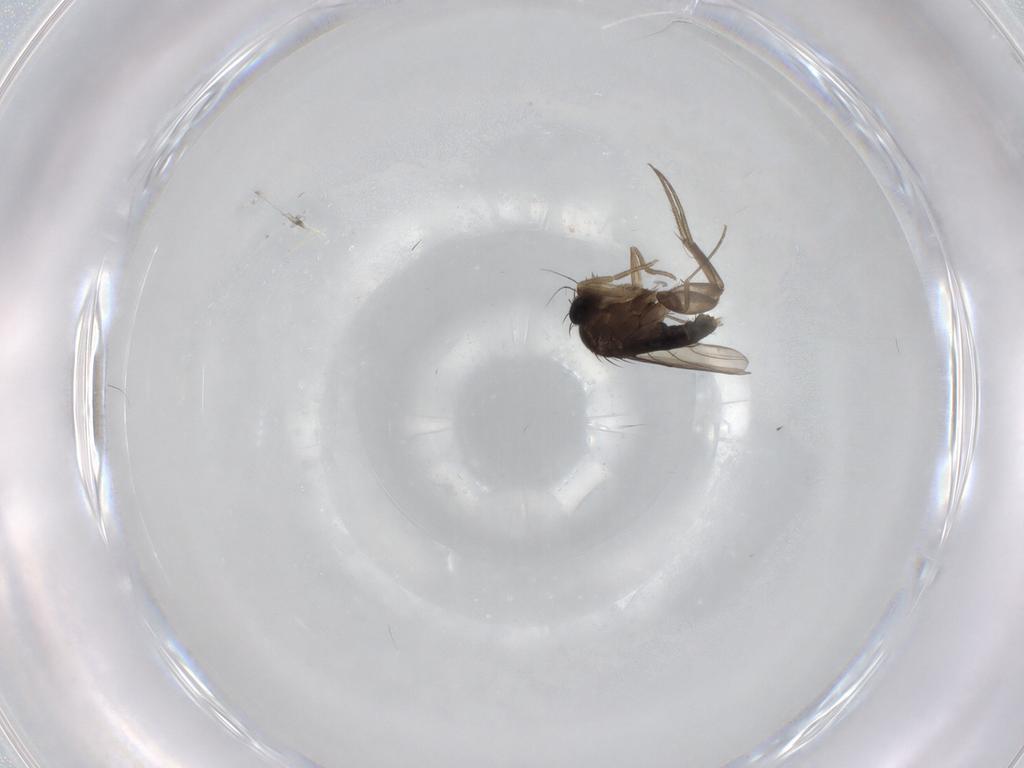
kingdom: Animalia
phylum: Arthropoda
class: Insecta
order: Diptera
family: Phoridae
